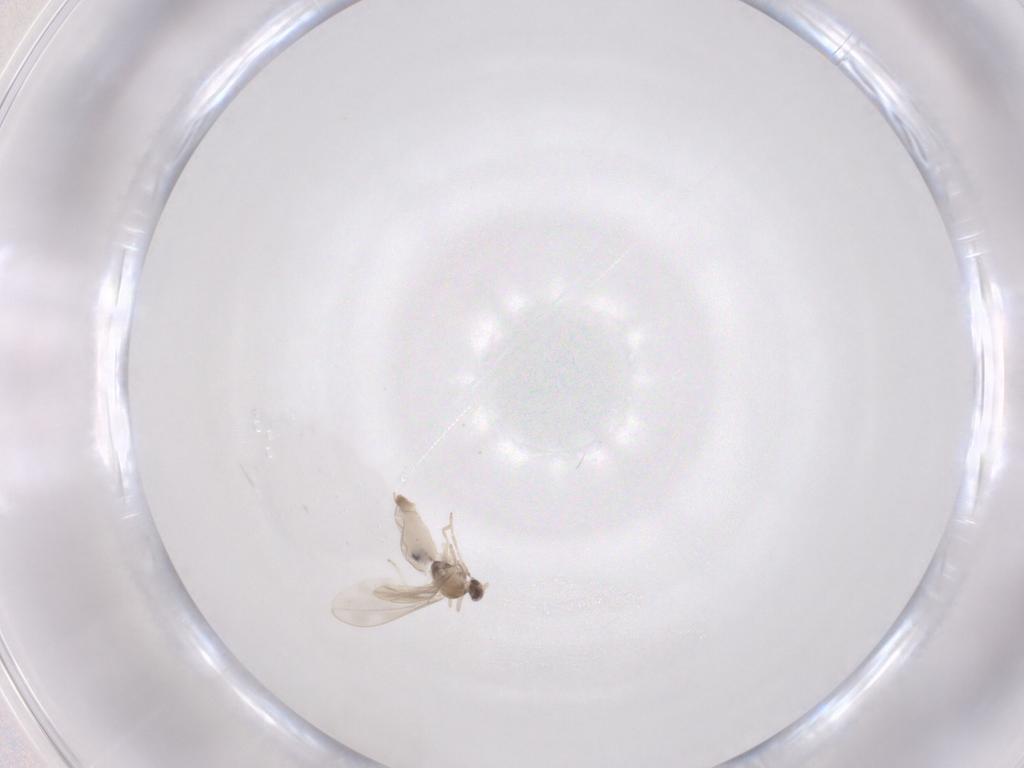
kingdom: Animalia
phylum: Arthropoda
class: Insecta
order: Diptera
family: Cecidomyiidae
